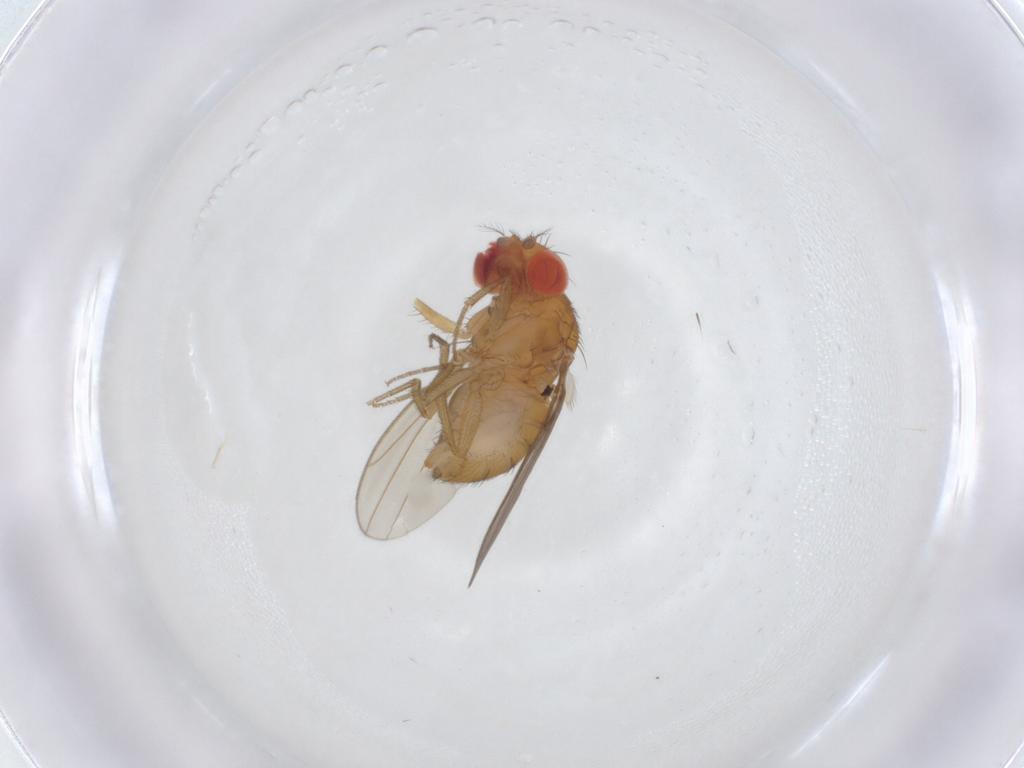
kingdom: Animalia
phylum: Arthropoda
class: Insecta
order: Diptera
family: Drosophilidae
